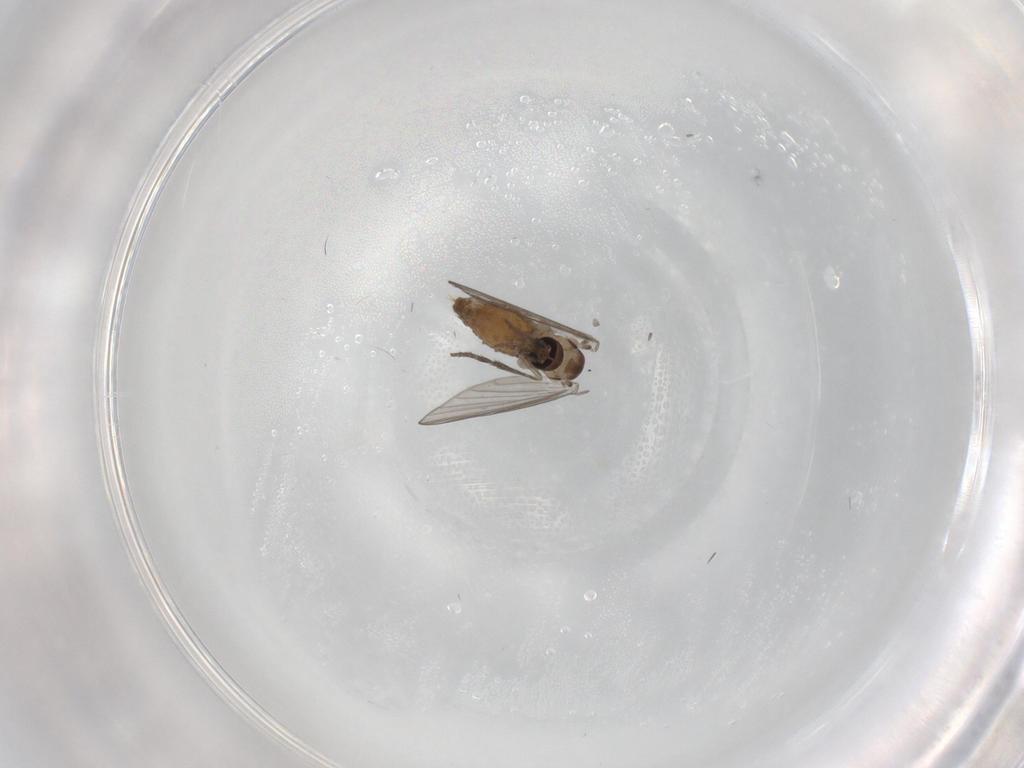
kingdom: Animalia
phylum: Arthropoda
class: Insecta
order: Diptera
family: Psychodidae
